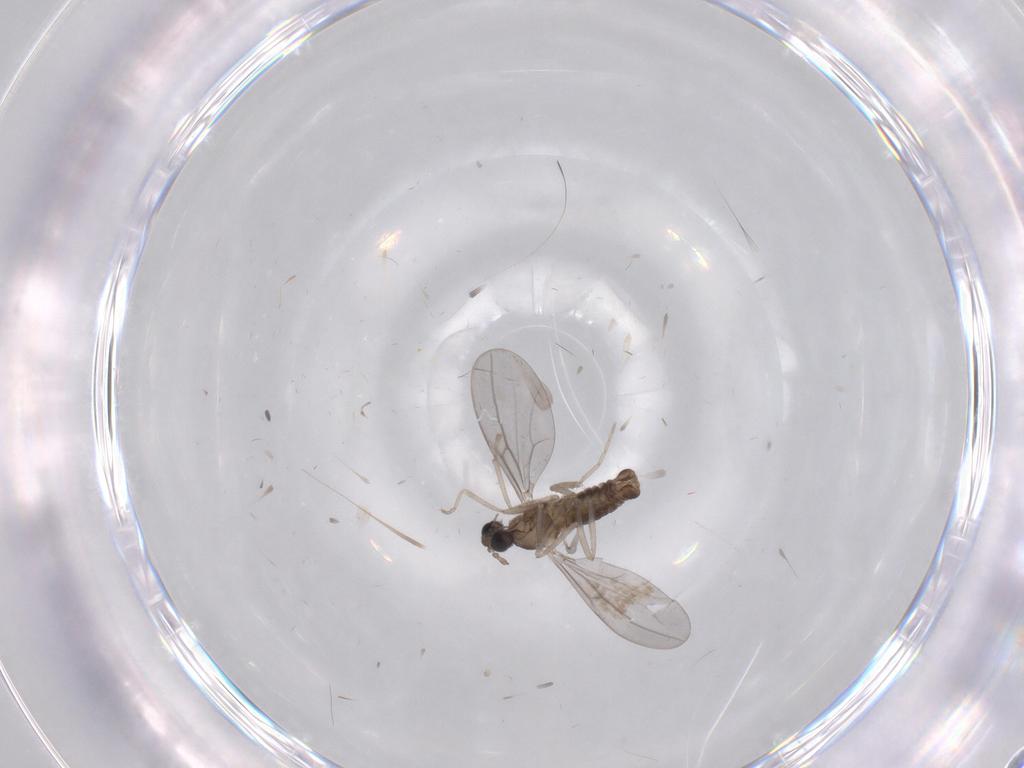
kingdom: Animalia
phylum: Arthropoda
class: Insecta
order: Diptera
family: Cecidomyiidae
